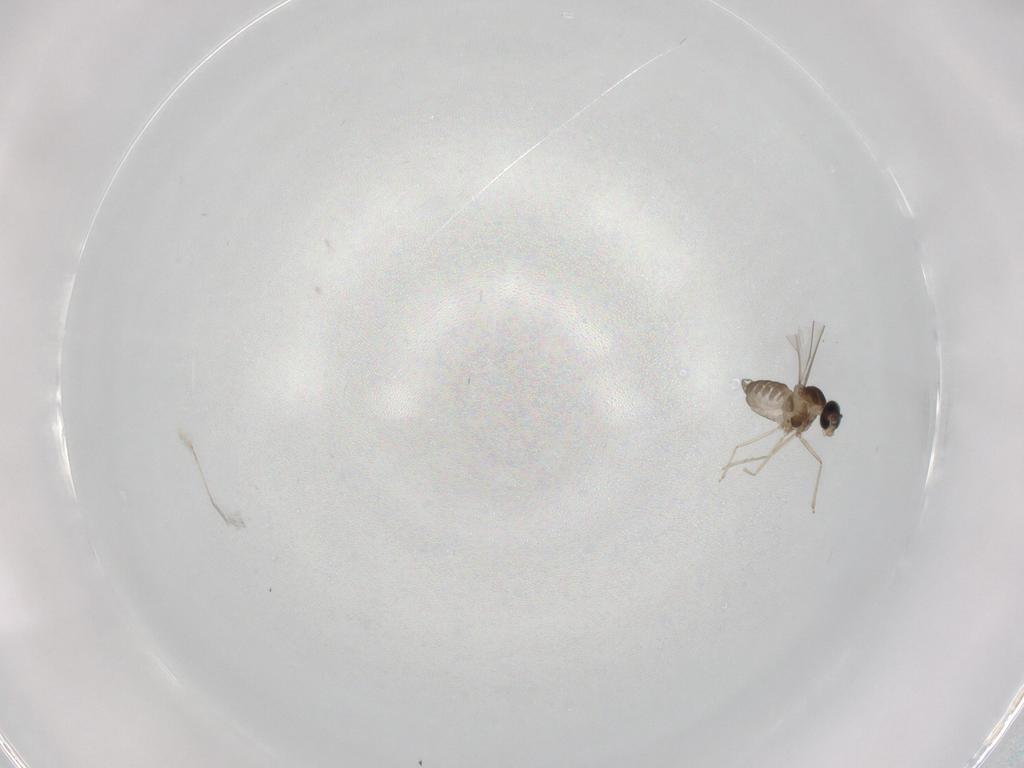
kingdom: Animalia
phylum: Arthropoda
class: Insecta
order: Diptera
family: Cecidomyiidae
